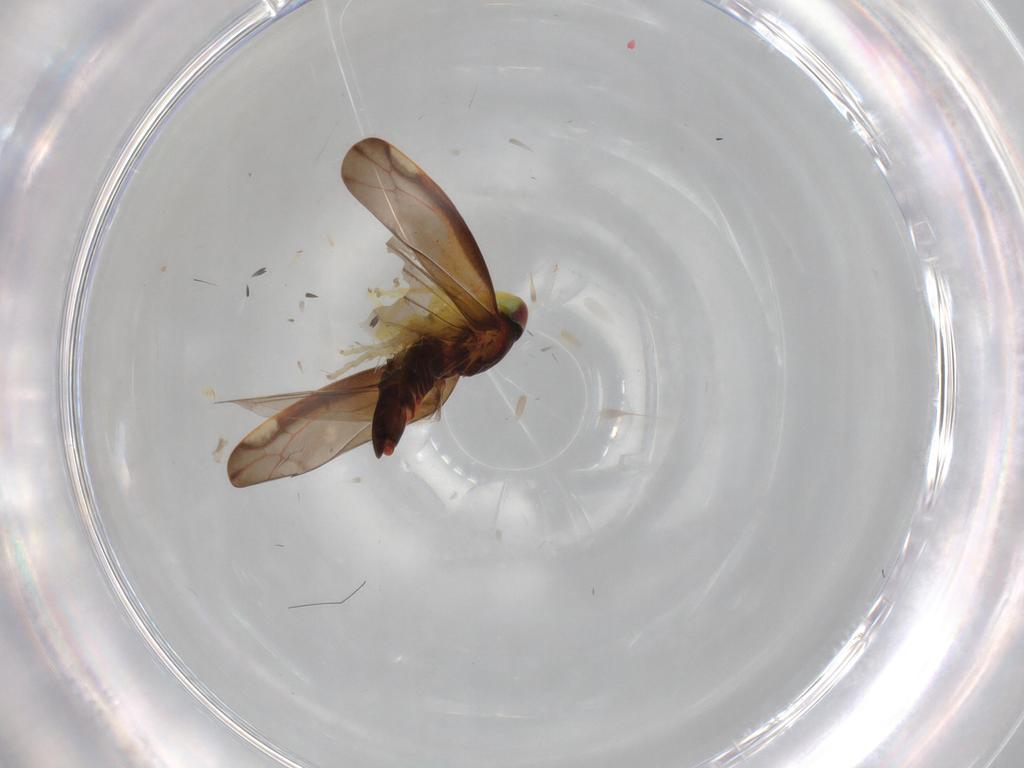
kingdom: Animalia
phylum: Arthropoda
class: Insecta
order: Hemiptera
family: Cicadellidae
